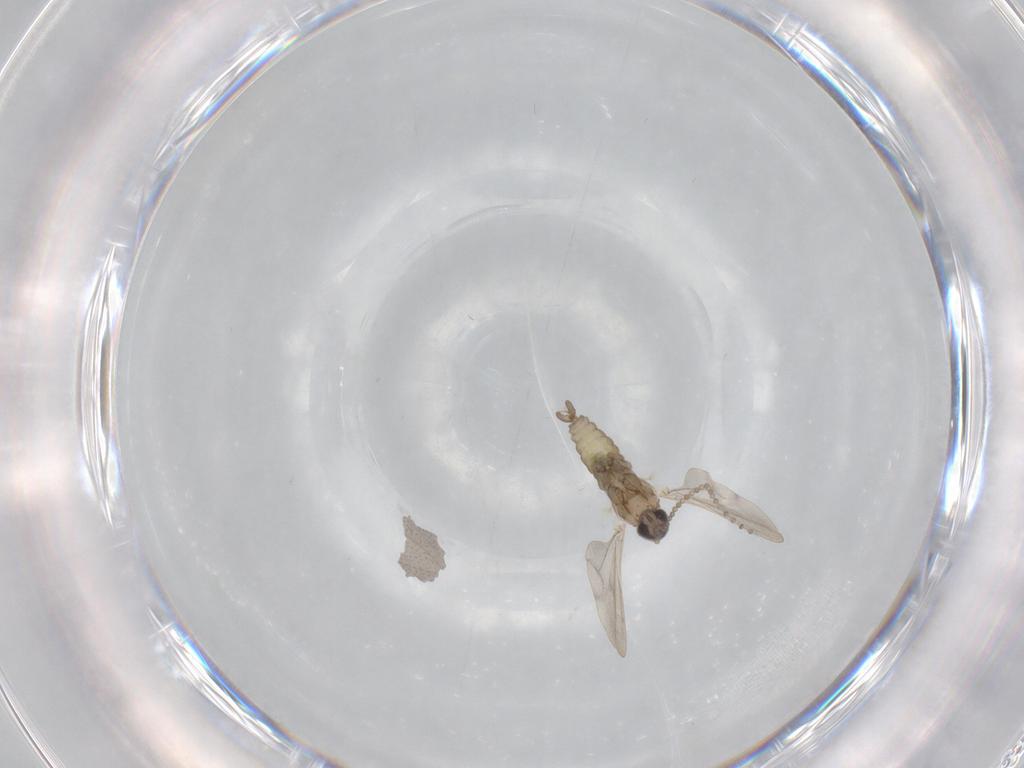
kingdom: Animalia
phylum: Arthropoda
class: Insecta
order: Diptera
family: Cecidomyiidae
